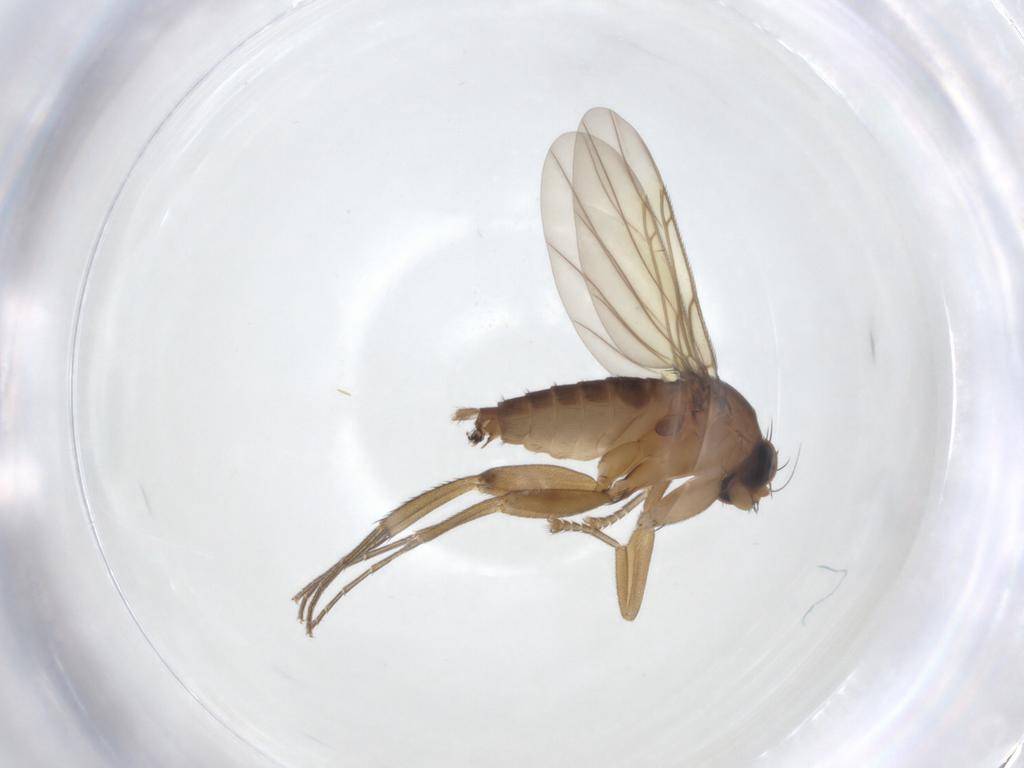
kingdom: Animalia
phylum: Arthropoda
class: Insecta
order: Diptera
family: Phoridae
